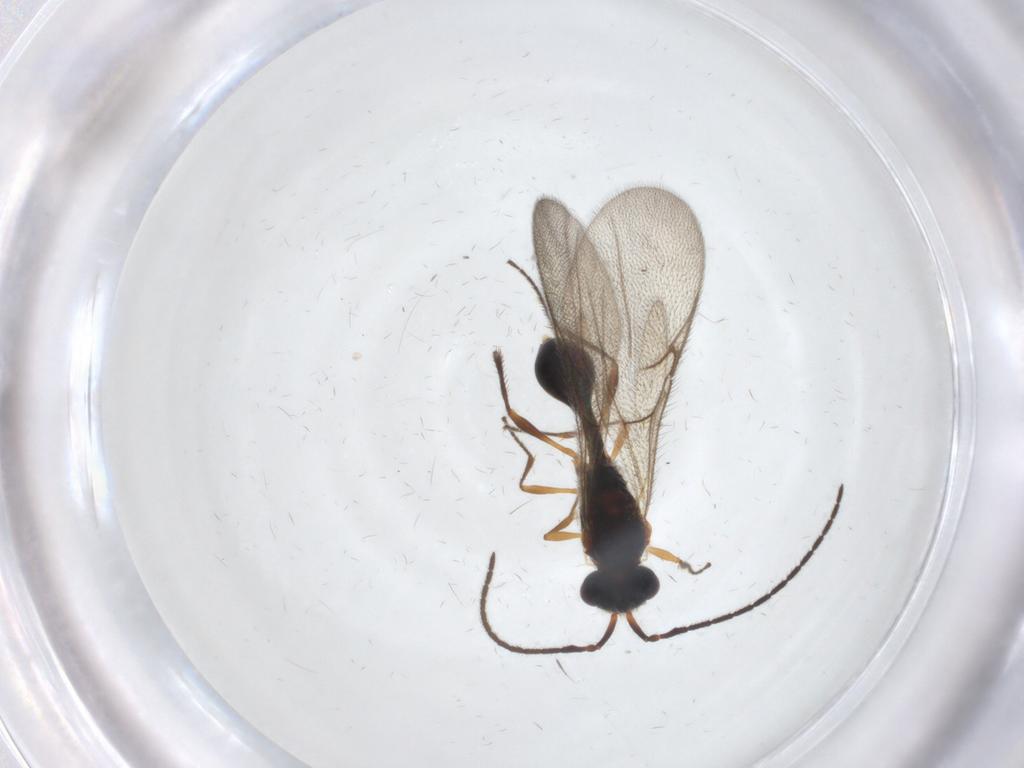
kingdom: Animalia
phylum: Arthropoda
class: Insecta
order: Hymenoptera
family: Diapriidae
